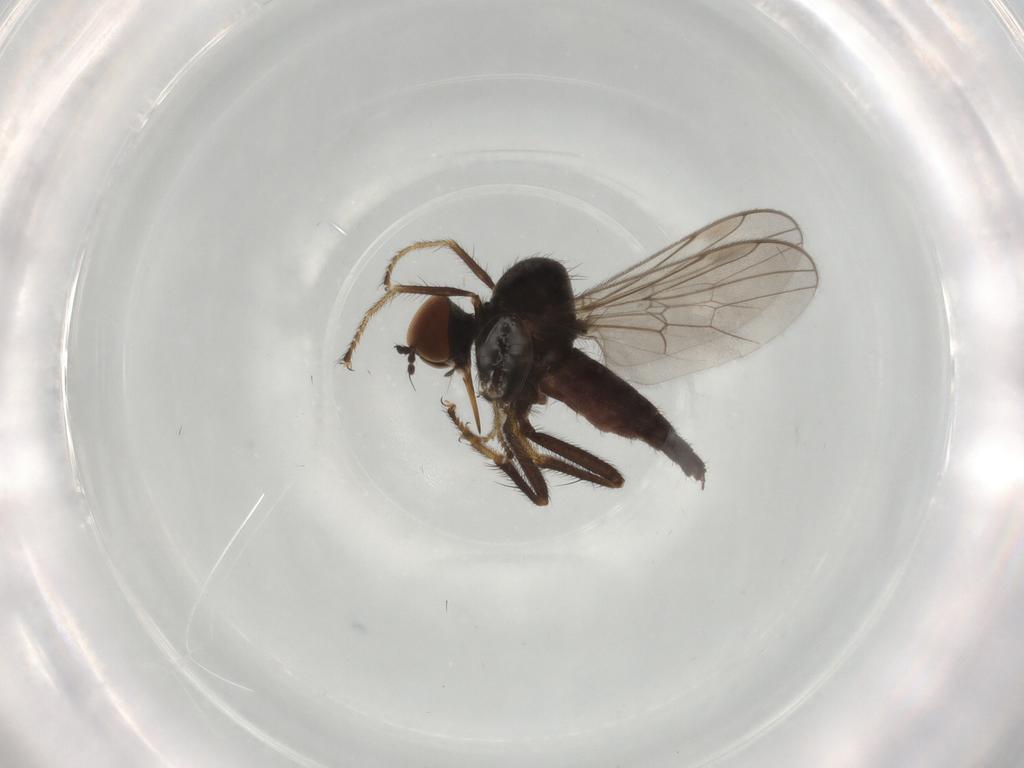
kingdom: Animalia
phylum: Arthropoda
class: Insecta
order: Diptera
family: Hybotidae
